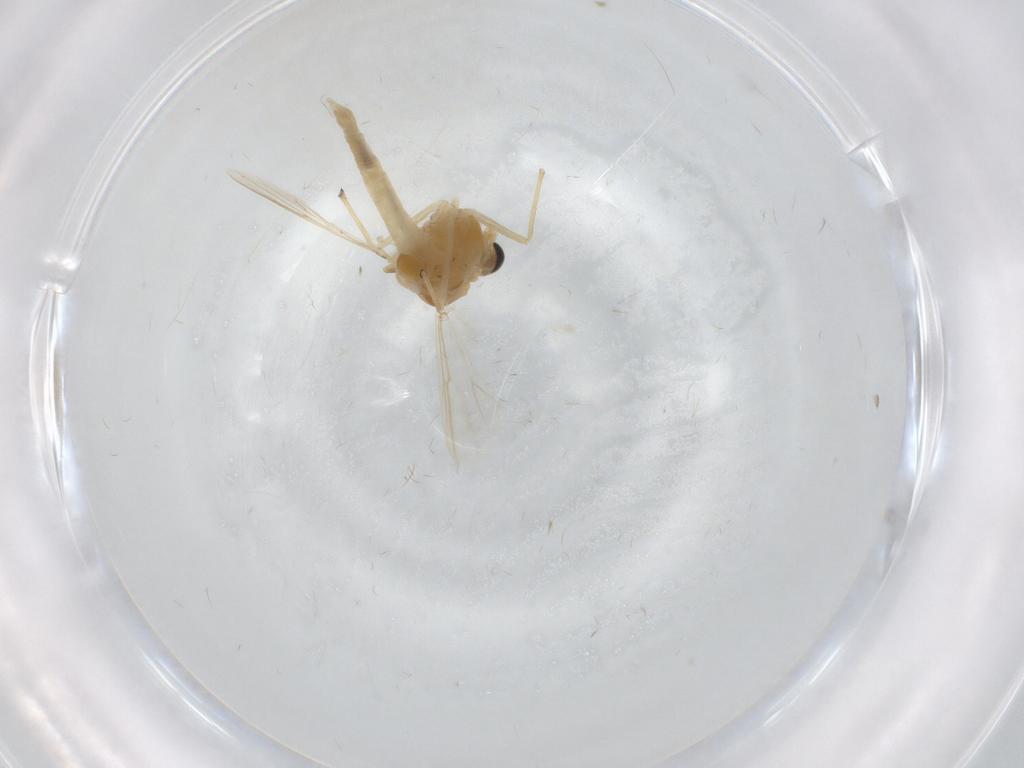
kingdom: Animalia
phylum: Arthropoda
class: Insecta
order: Diptera
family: Chironomidae
